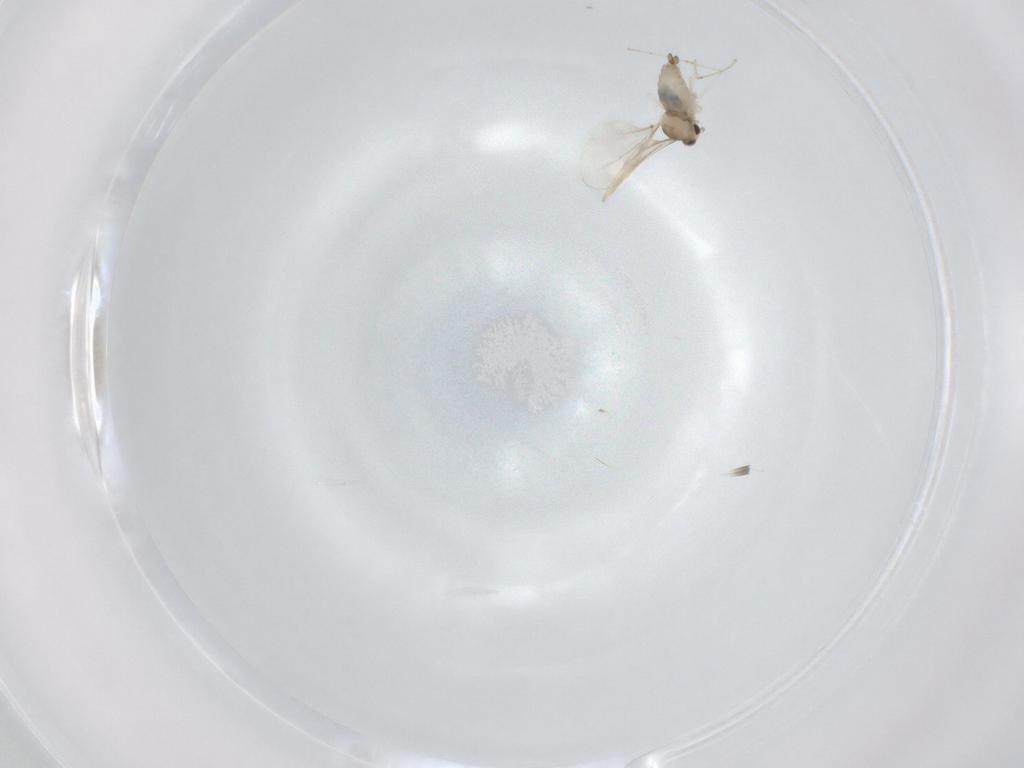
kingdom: Animalia
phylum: Arthropoda
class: Insecta
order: Diptera
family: Cecidomyiidae
